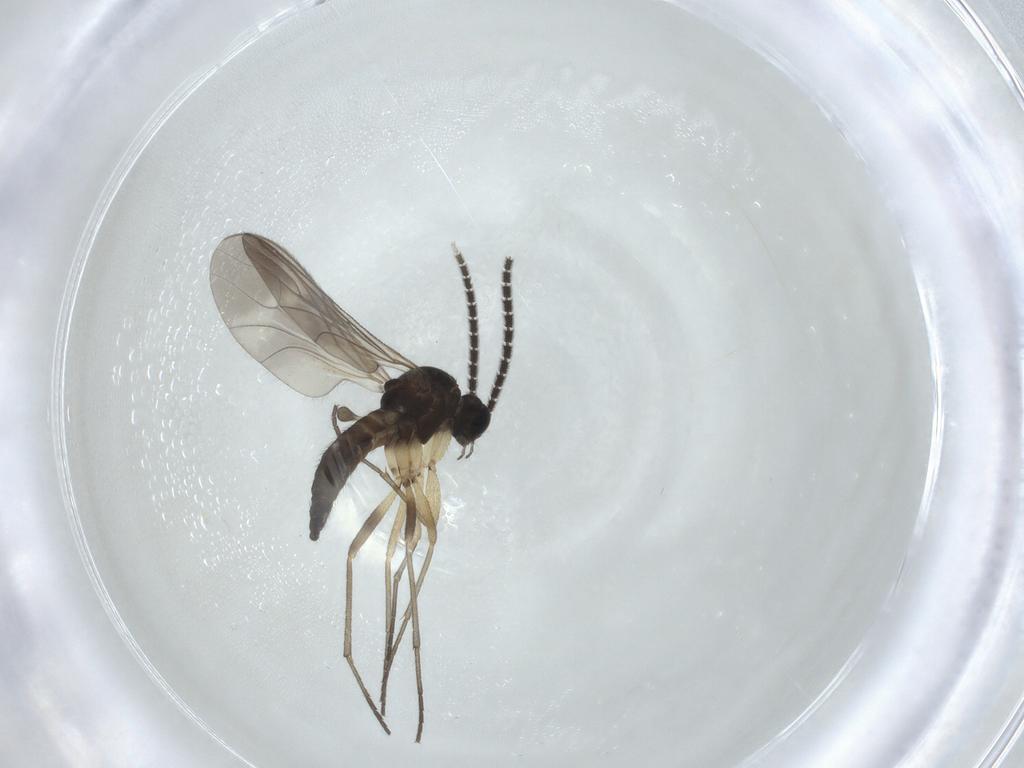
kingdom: Animalia
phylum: Arthropoda
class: Insecta
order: Diptera
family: Sciaridae
